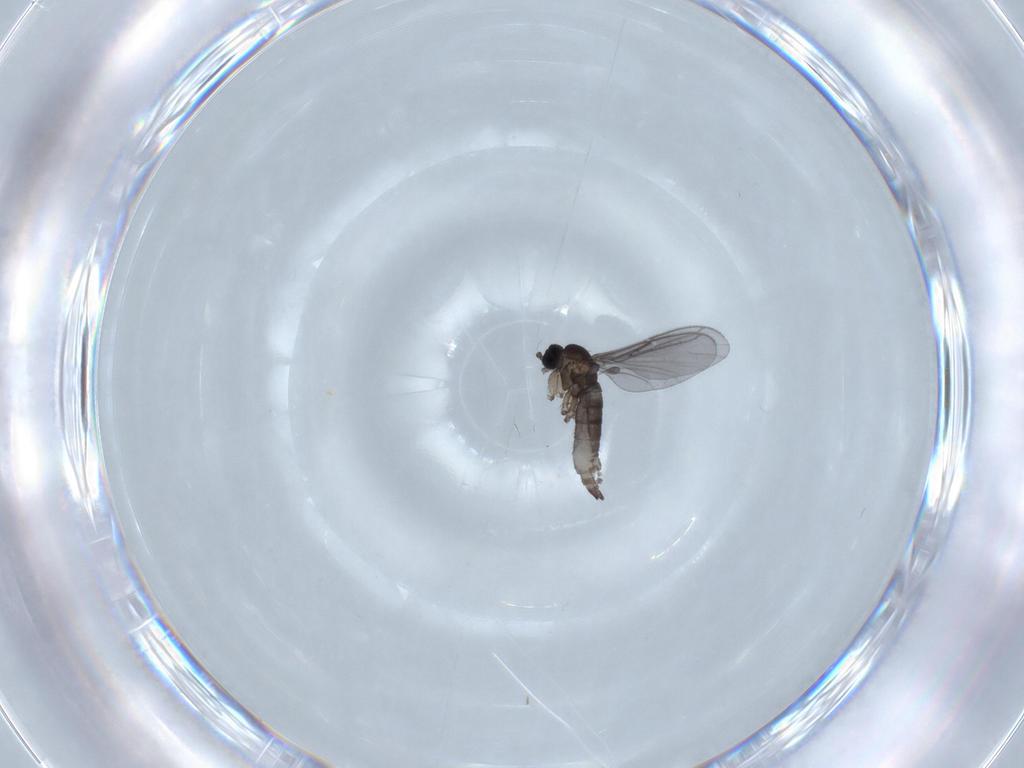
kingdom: Animalia
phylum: Arthropoda
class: Insecta
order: Diptera
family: Cecidomyiidae
